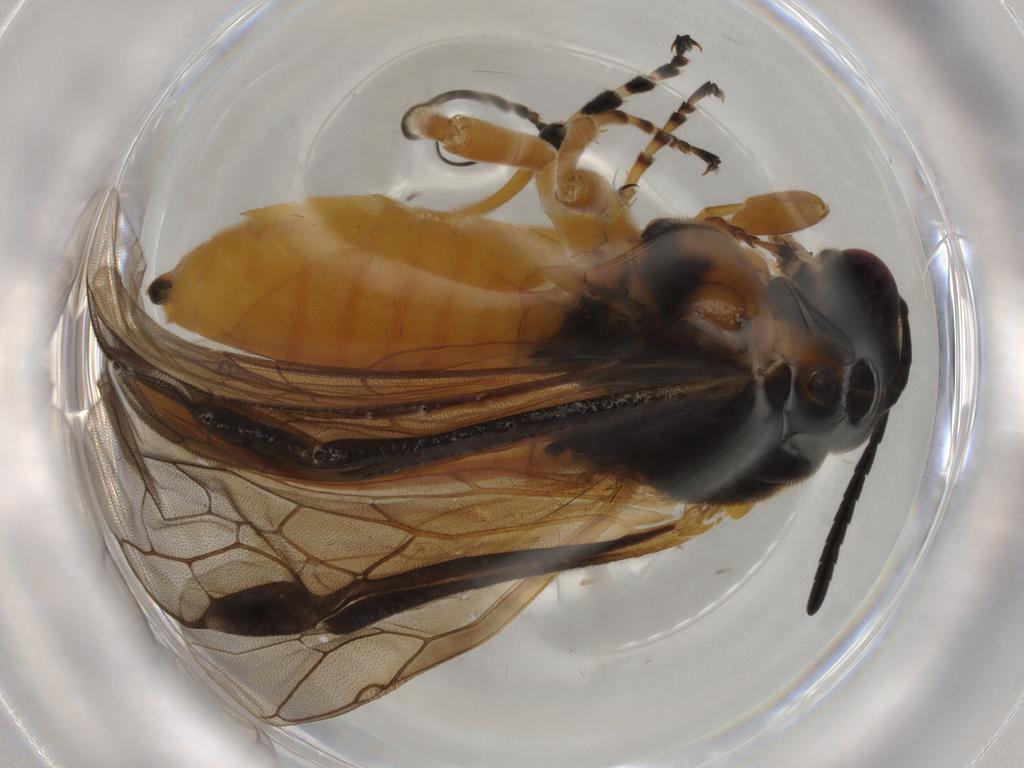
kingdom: Animalia
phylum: Arthropoda
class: Insecta
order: Hymenoptera
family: Tenthredinidae
